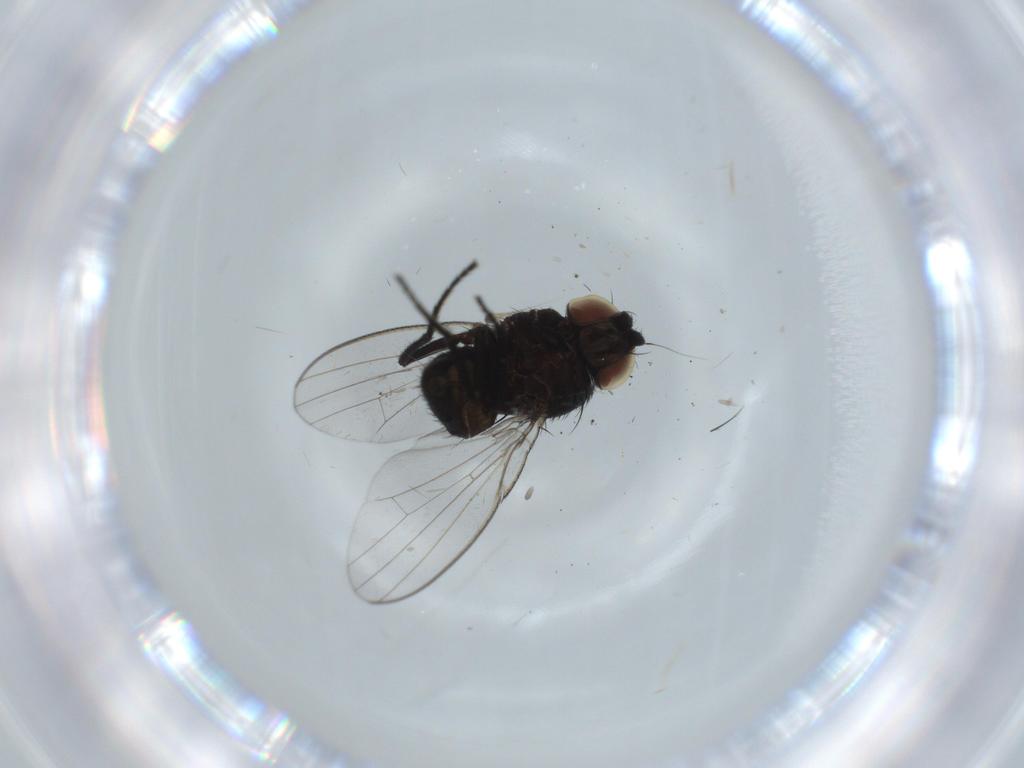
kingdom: Animalia
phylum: Arthropoda
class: Insecta
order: Diptera
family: Milichiidae
